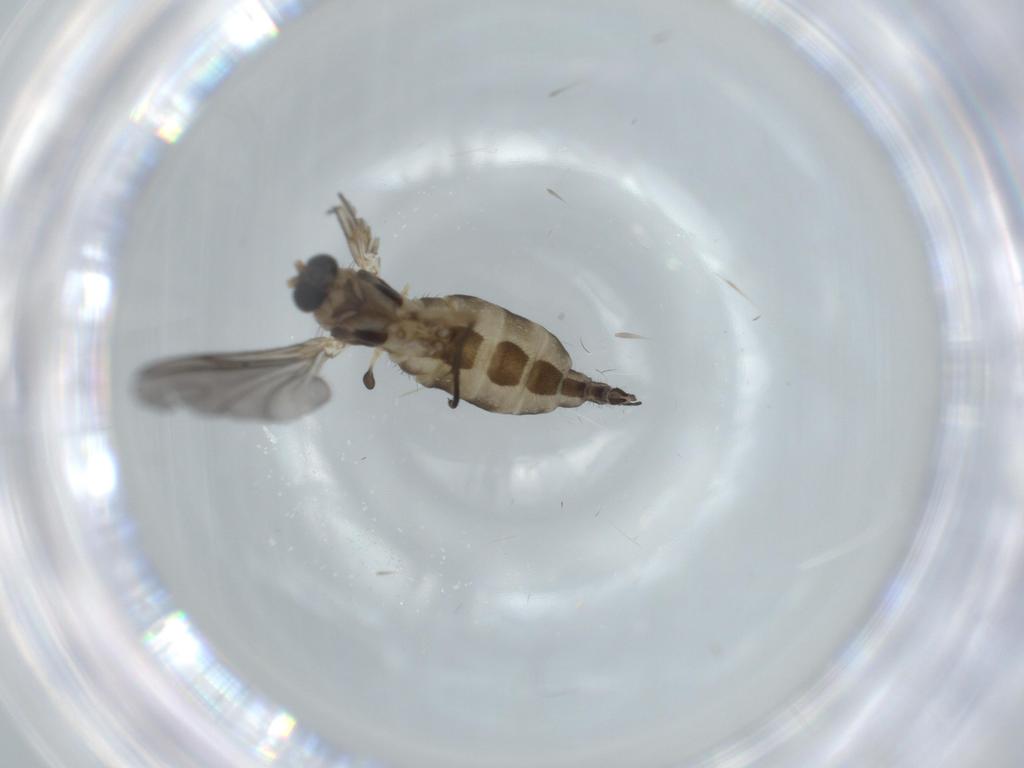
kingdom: Animalia
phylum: Arthropoda
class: Insecta
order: Diptera
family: Sciaridae
